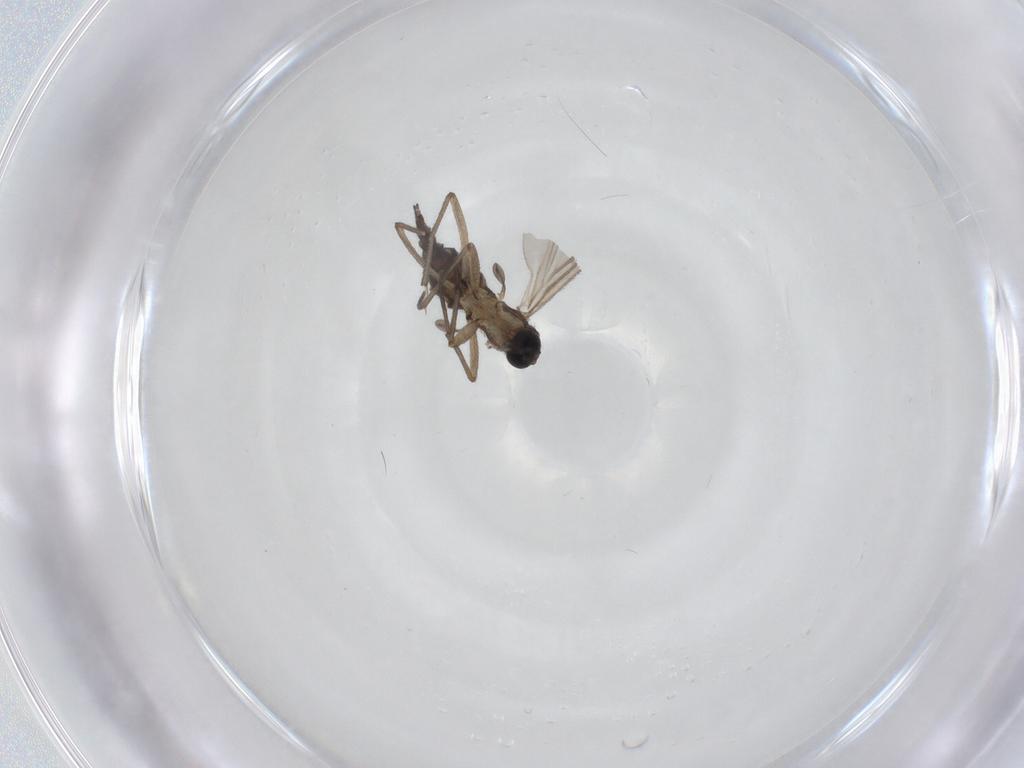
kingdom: Animalia
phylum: Arthropoda
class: Insecta
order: Diptera
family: Sciaridae
